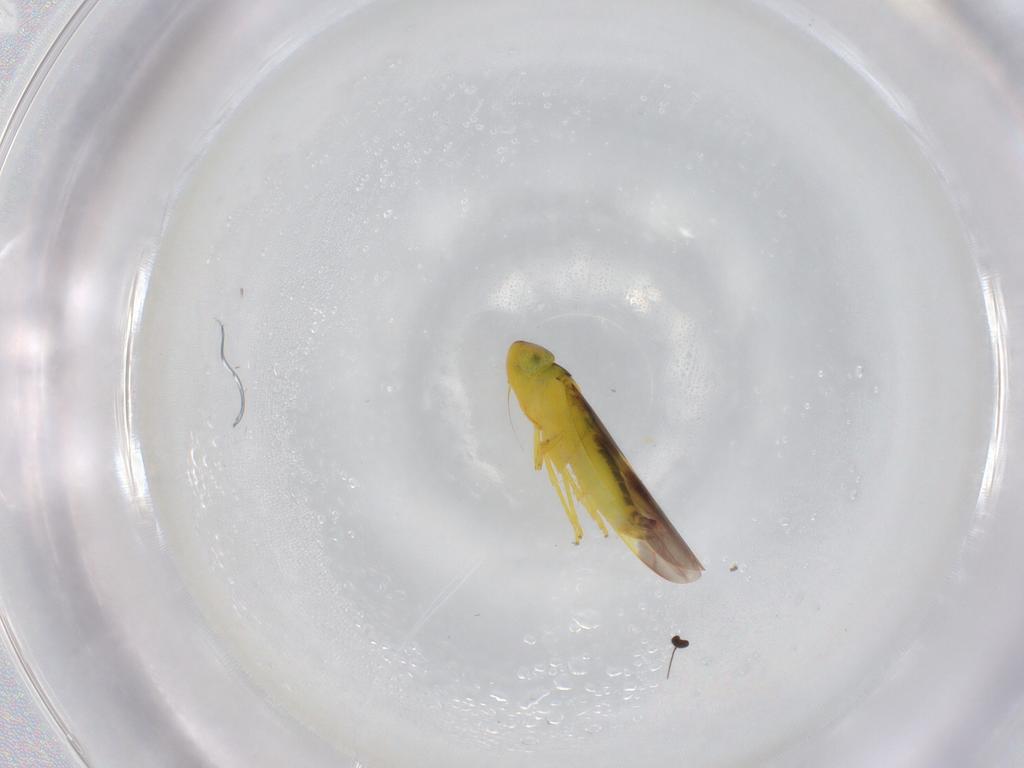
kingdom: Animalia
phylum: Arthropoda
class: Insecta
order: Hemiptera
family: Cicadellidae
